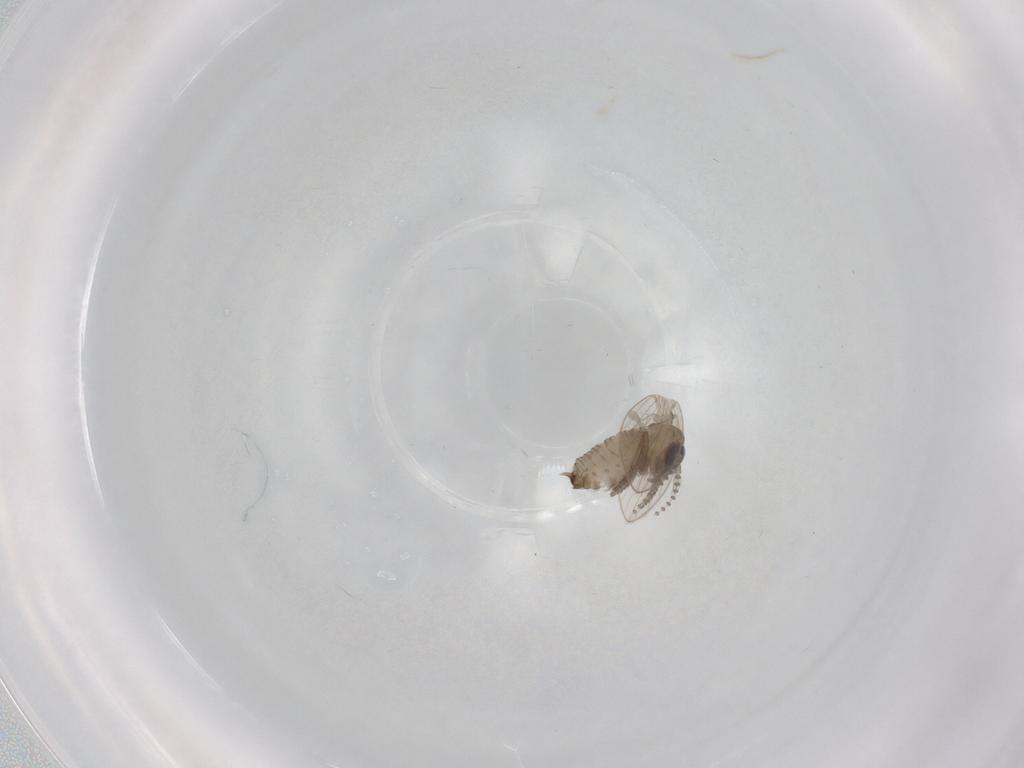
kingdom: Animalia
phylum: Arthropoda
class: Insecta
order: Diptera
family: Psychodidae
